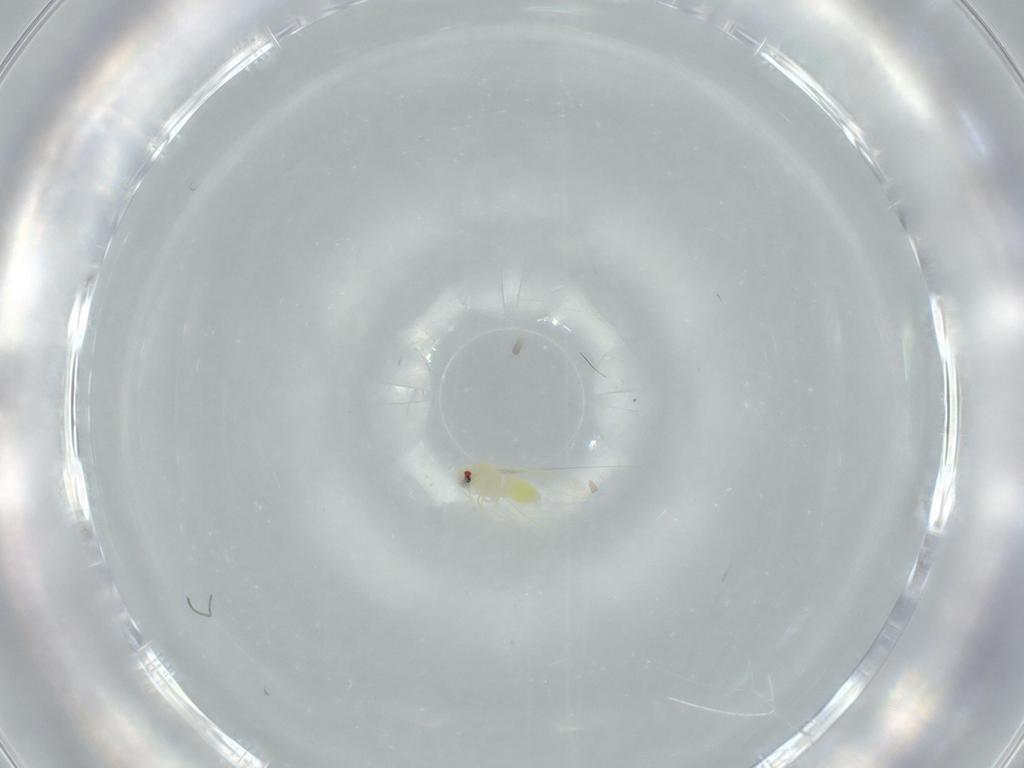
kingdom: Animalia
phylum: Arthropoda
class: Insecta
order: Hemiptera
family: Aleyrodidae
